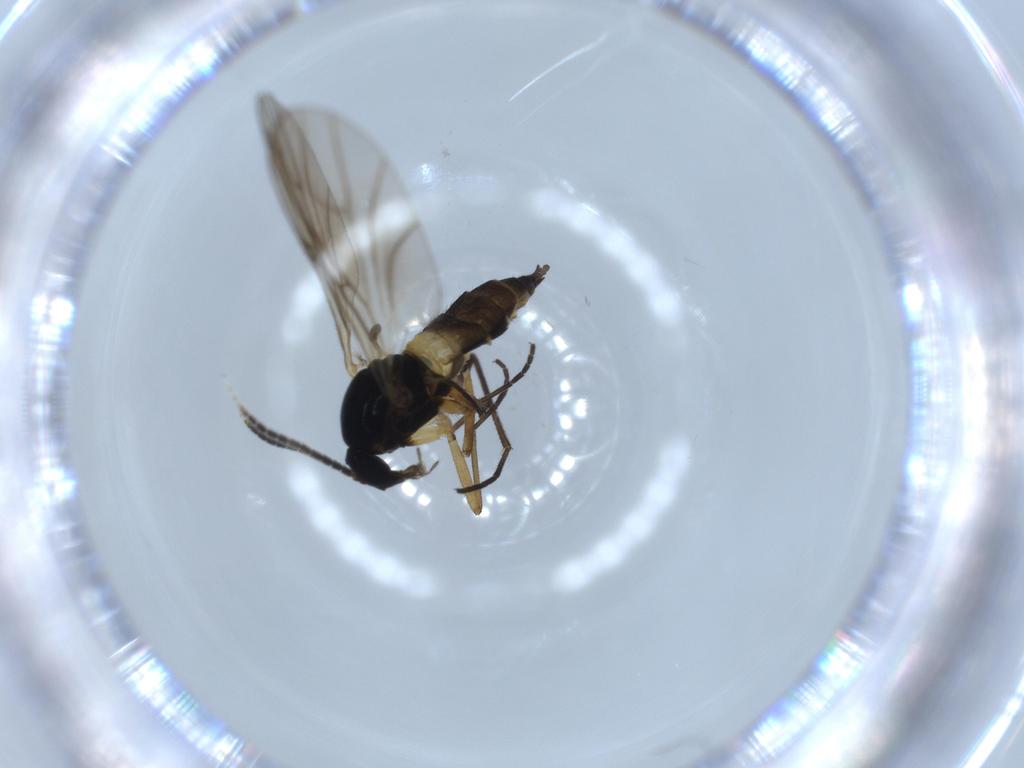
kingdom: Animalia
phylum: Arthropoda
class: Insecta
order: Diptera
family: Sciaridae
